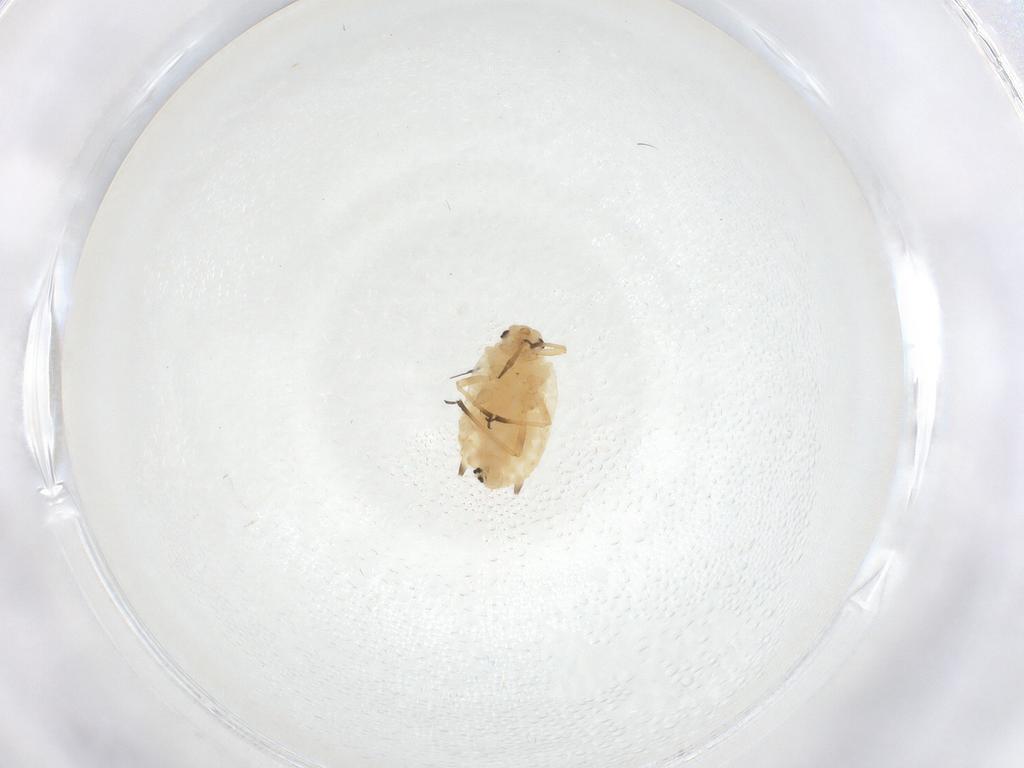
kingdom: Animalia
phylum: Arthropoda
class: Insecta
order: Hemiptera
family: Aphididae
